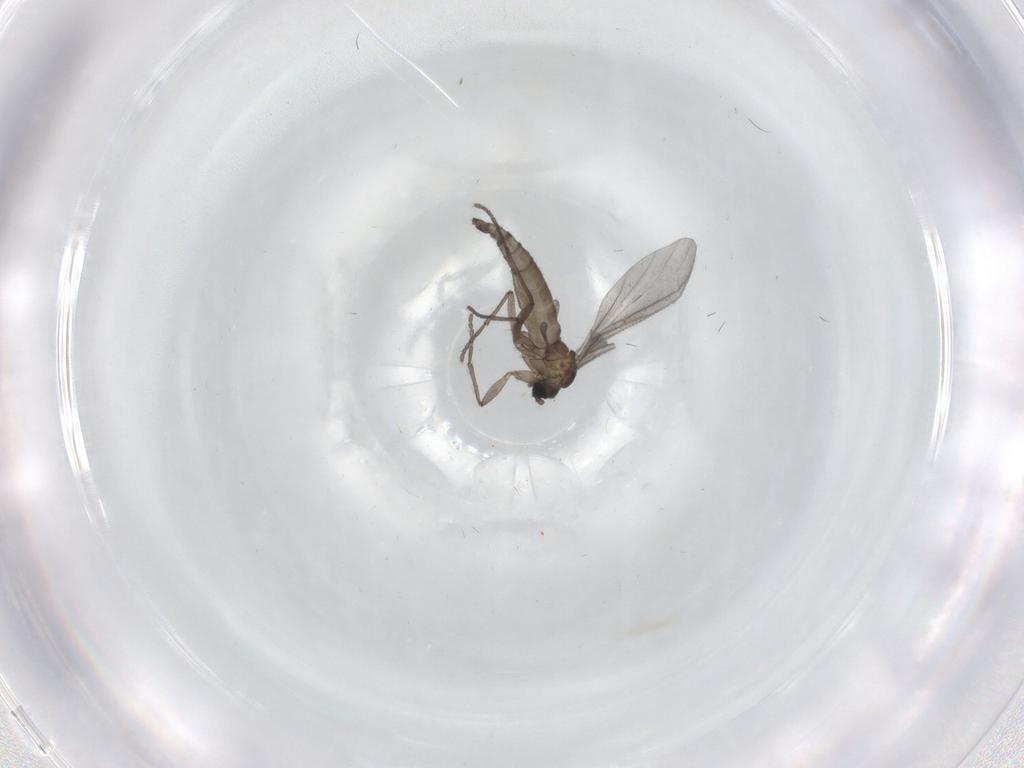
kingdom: Animalia
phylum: Arthropoda
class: Insecta
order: Diptera
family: Sciaridae
